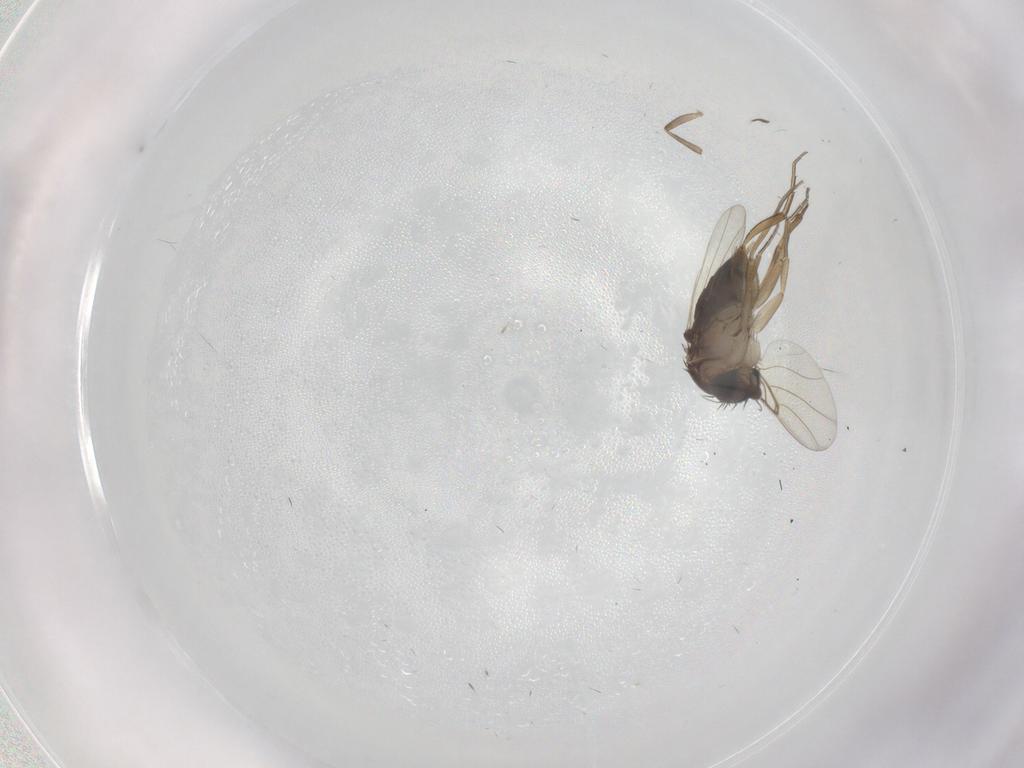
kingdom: Animalia
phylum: Arthropoda
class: Insecta
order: Diptera
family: Phoridae
